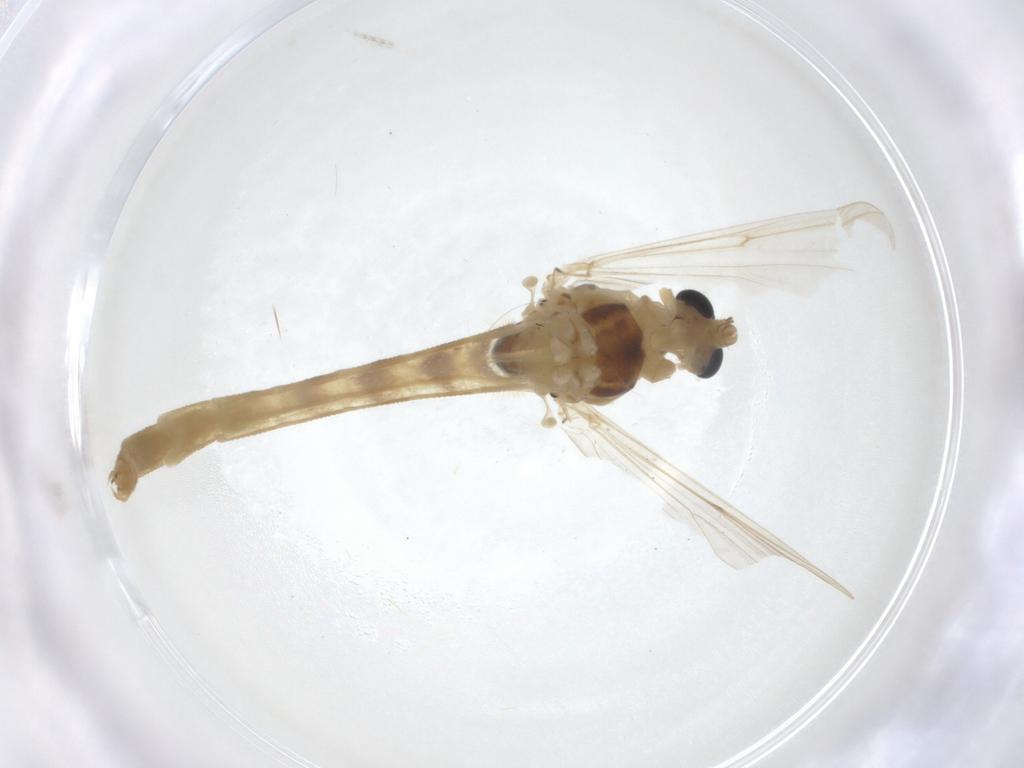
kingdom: Animalia
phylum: Arthropoda
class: Insecta
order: Diptera
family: Chironomidae
